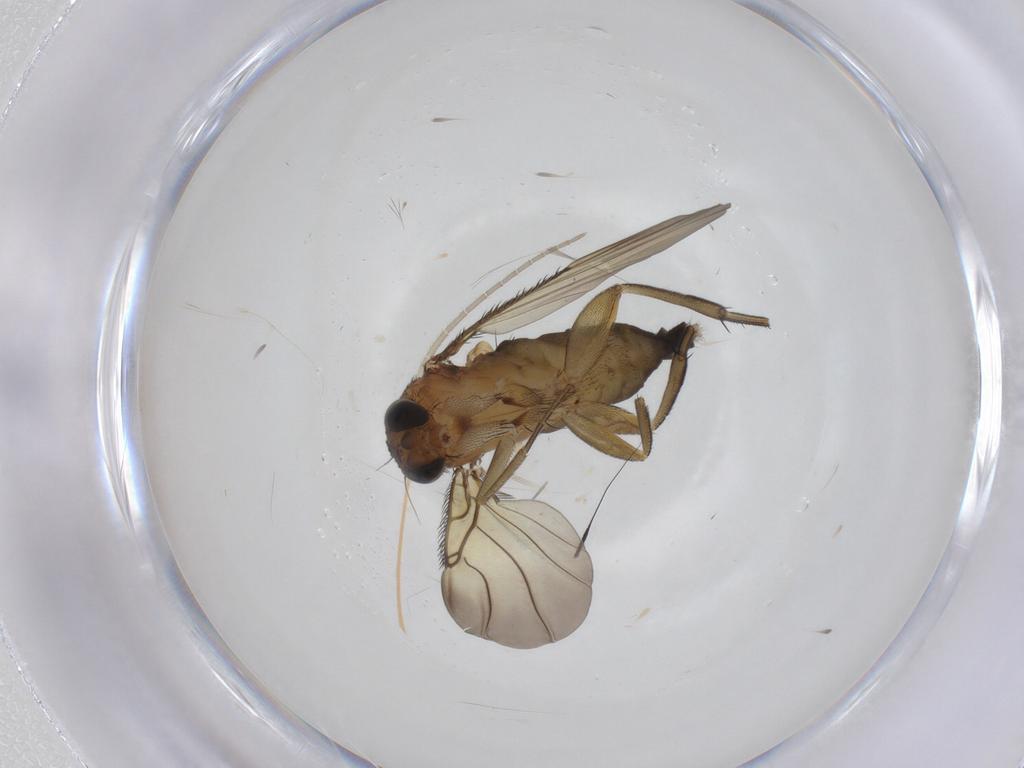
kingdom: Animalia
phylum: Arthropoda
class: Insecta
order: Diptera
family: Phoridae
